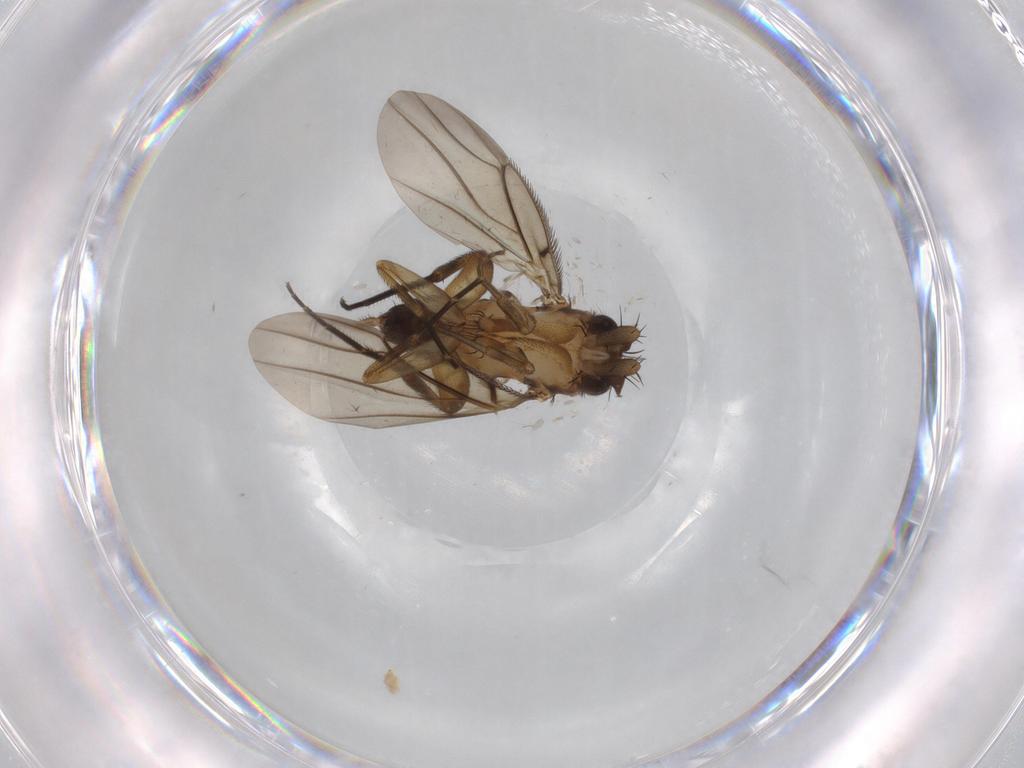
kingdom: Animalia
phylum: Arthropoda
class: Insecta
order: Diptera
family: Phoridae
